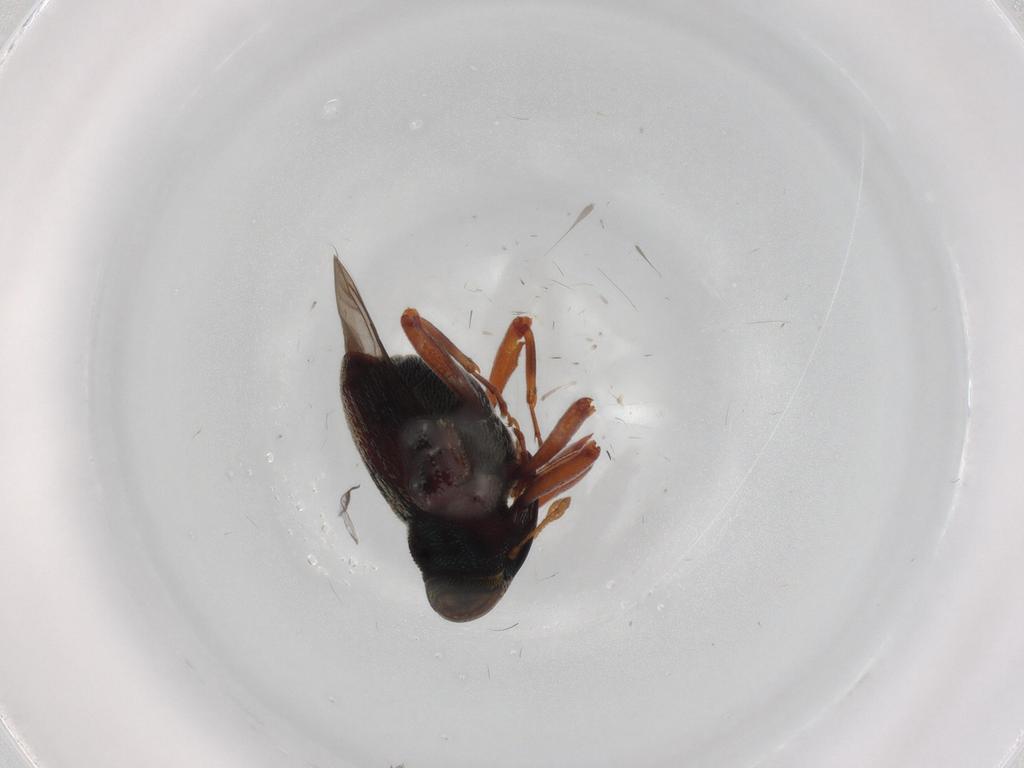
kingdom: Animalia
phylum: Arthropoda
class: Insecta
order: Coleoptera
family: Curculionidae
